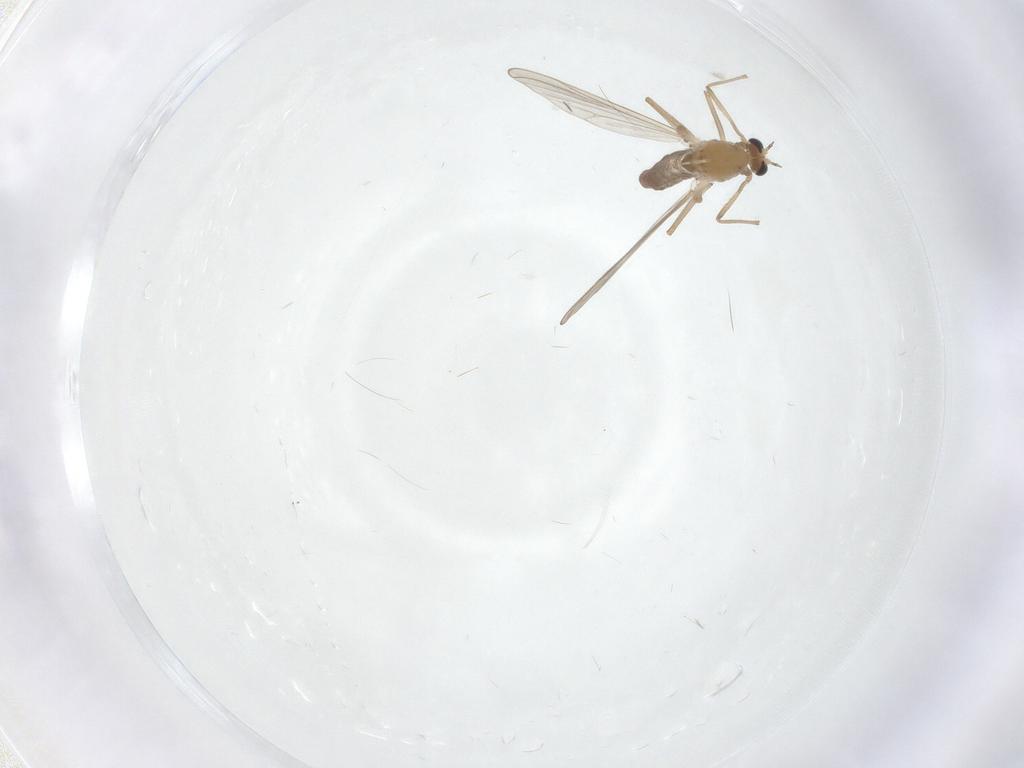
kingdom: Animalia
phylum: Arthropoda
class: Insecta
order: Diptera
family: Chironomidae
